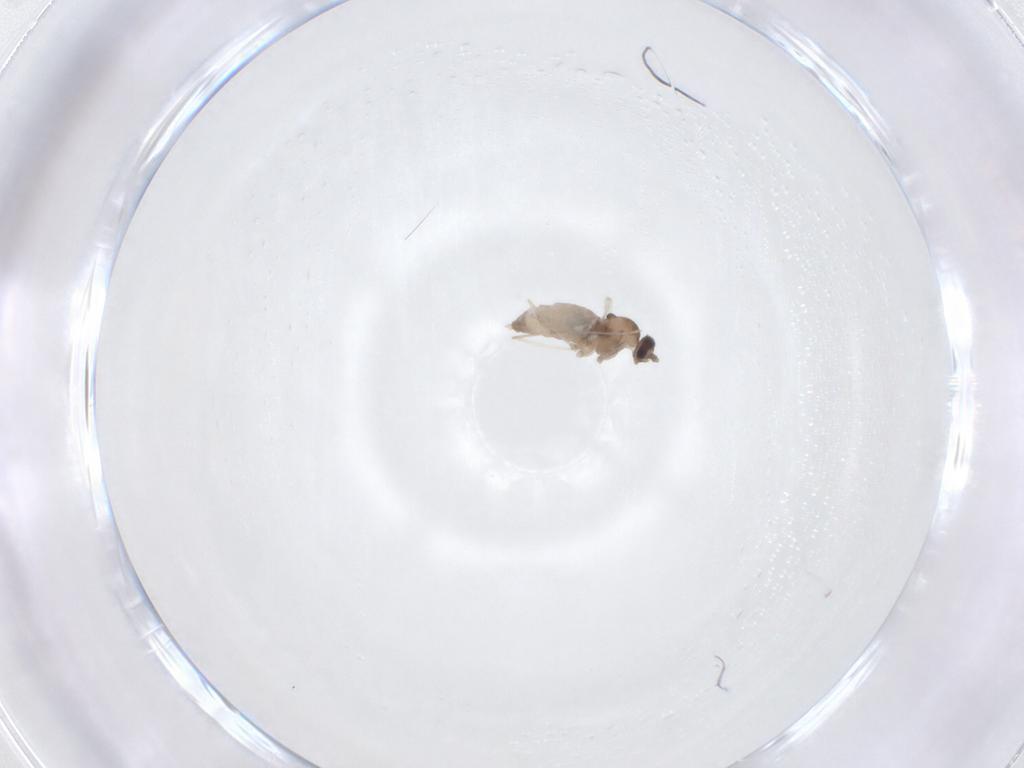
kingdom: Animalia
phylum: Arthropoda
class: Insecta
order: Diptera
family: Cecidomyiidae
